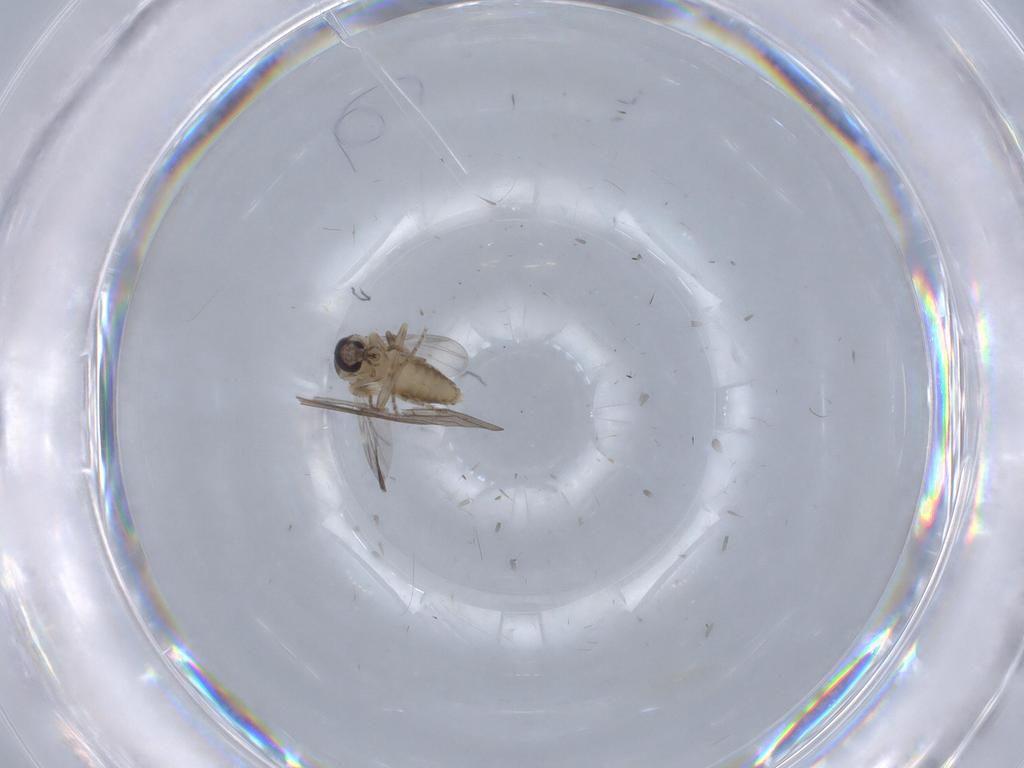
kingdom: Animalia
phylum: Arthropoda
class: Insecta
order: Diptera
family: Ceratopogonidae
